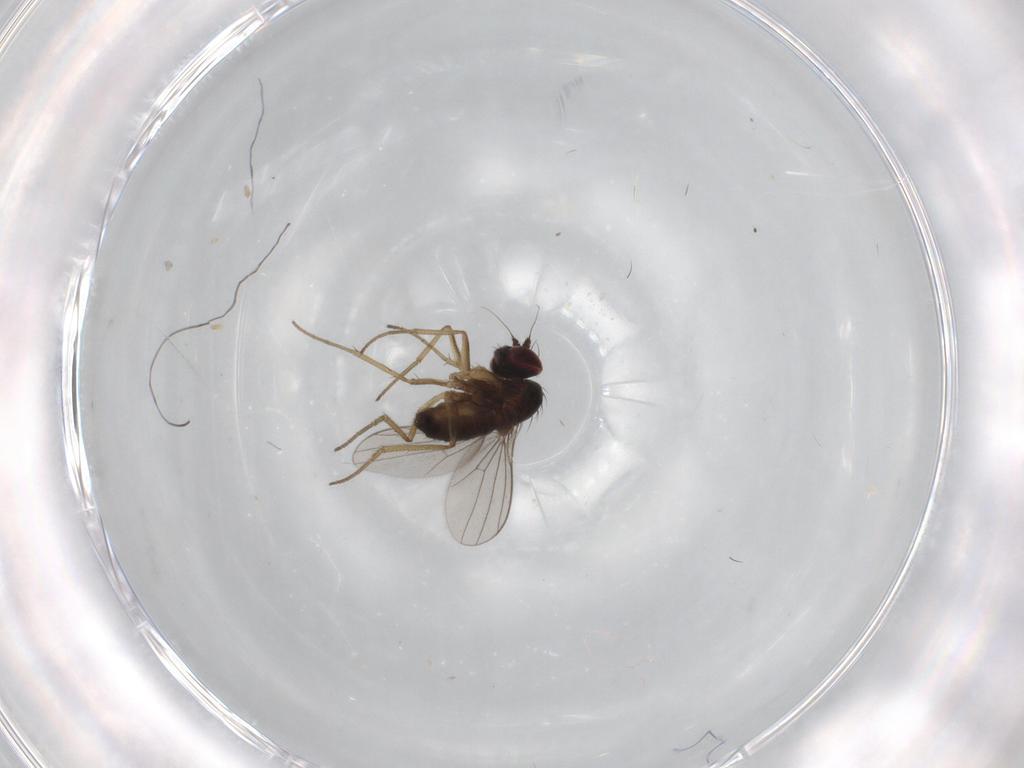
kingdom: Animalia
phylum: Arthropoda
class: Insecta
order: Diptera
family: Dolichopodidae
